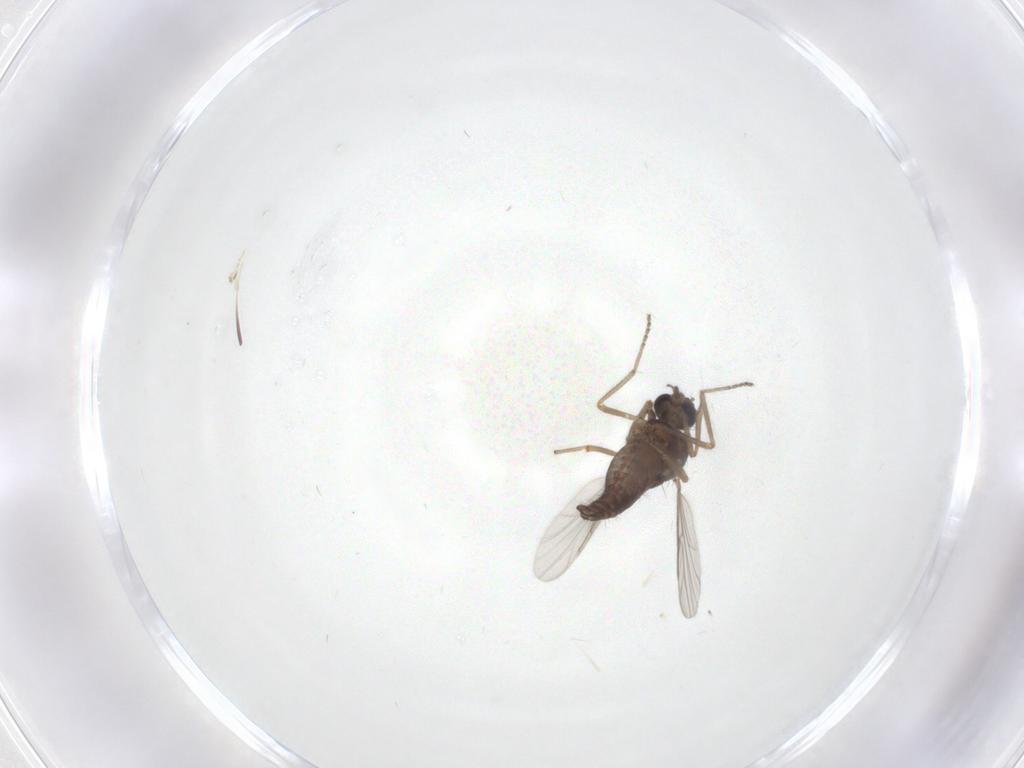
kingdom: Animalia
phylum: Arthropoda
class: Insecta
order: Diptera
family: Ceratopogonidae
